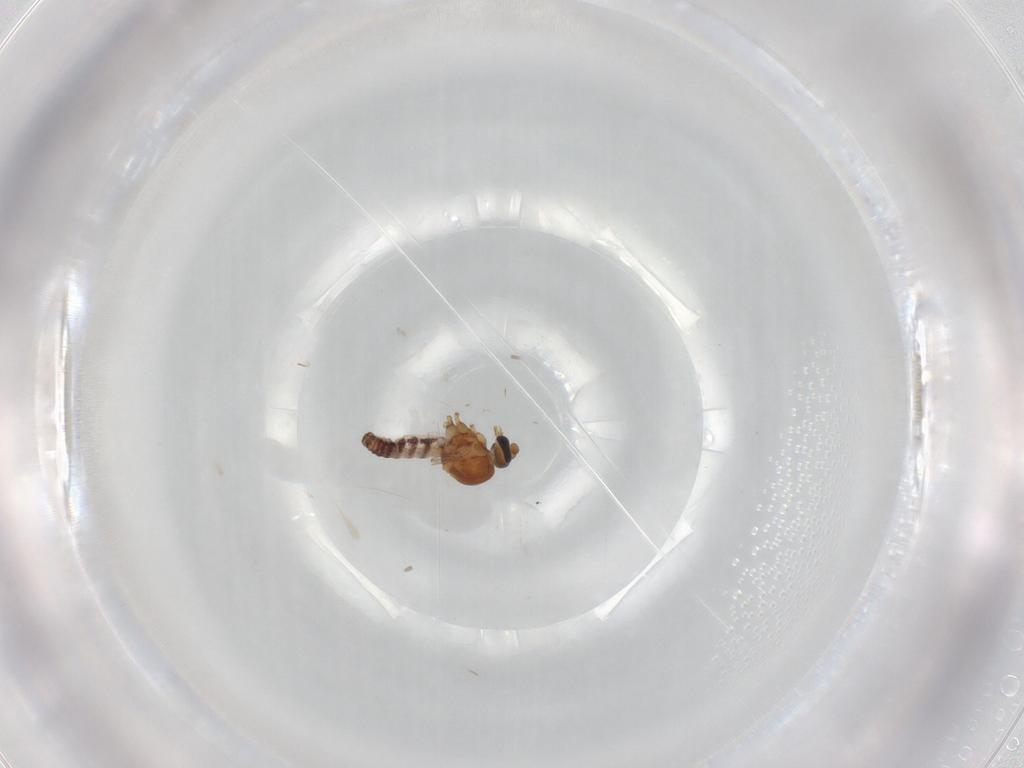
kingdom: Animalia
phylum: Arthropoda
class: Insecta
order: Diptera
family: Ceratopogonidae
